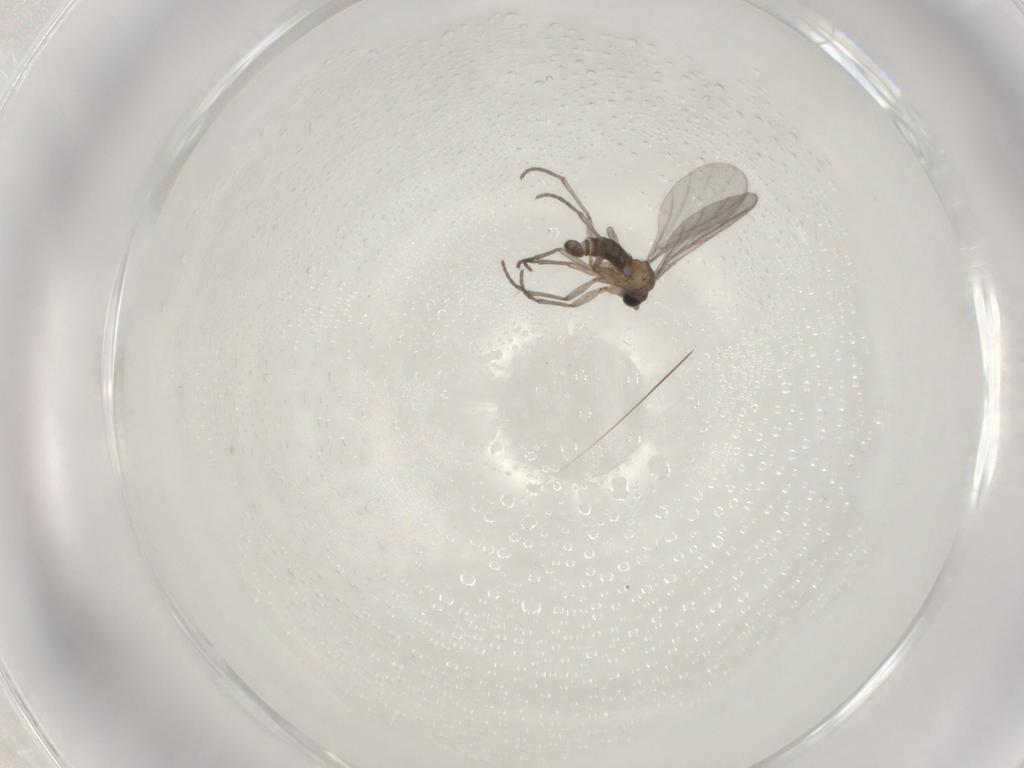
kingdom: Animalia
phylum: Arthropoda
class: Insecta
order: Diptera
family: Sciaridae
